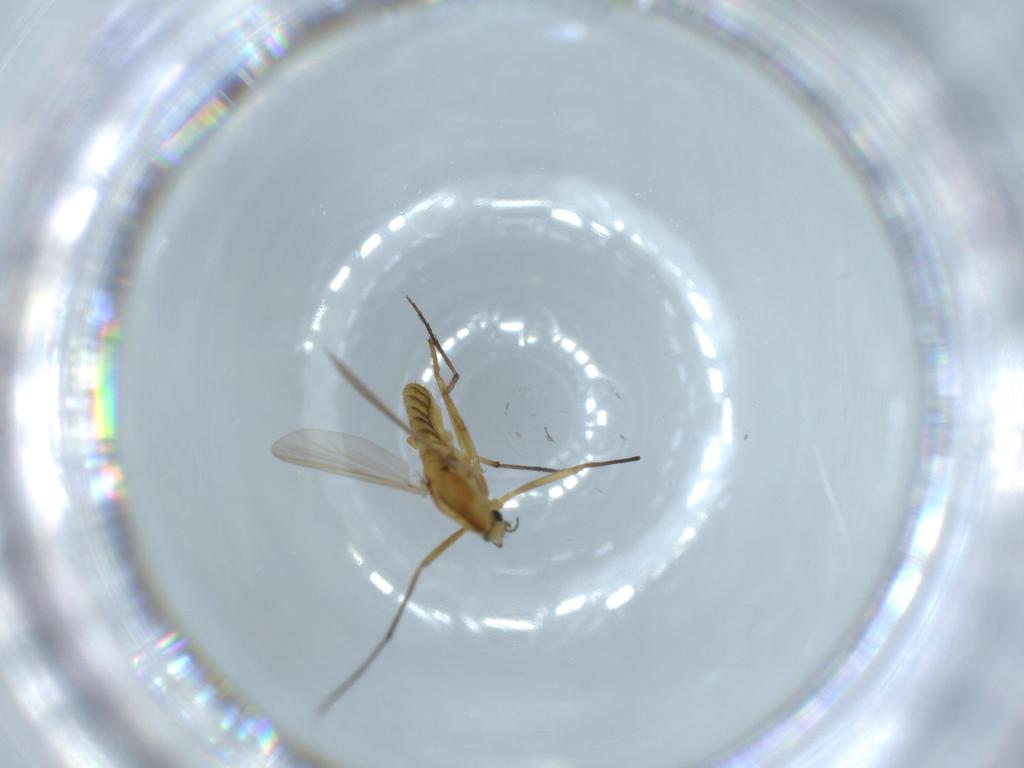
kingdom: Animalia
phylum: Arthropoda
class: Insecta
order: Diptera
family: Chironomidae
